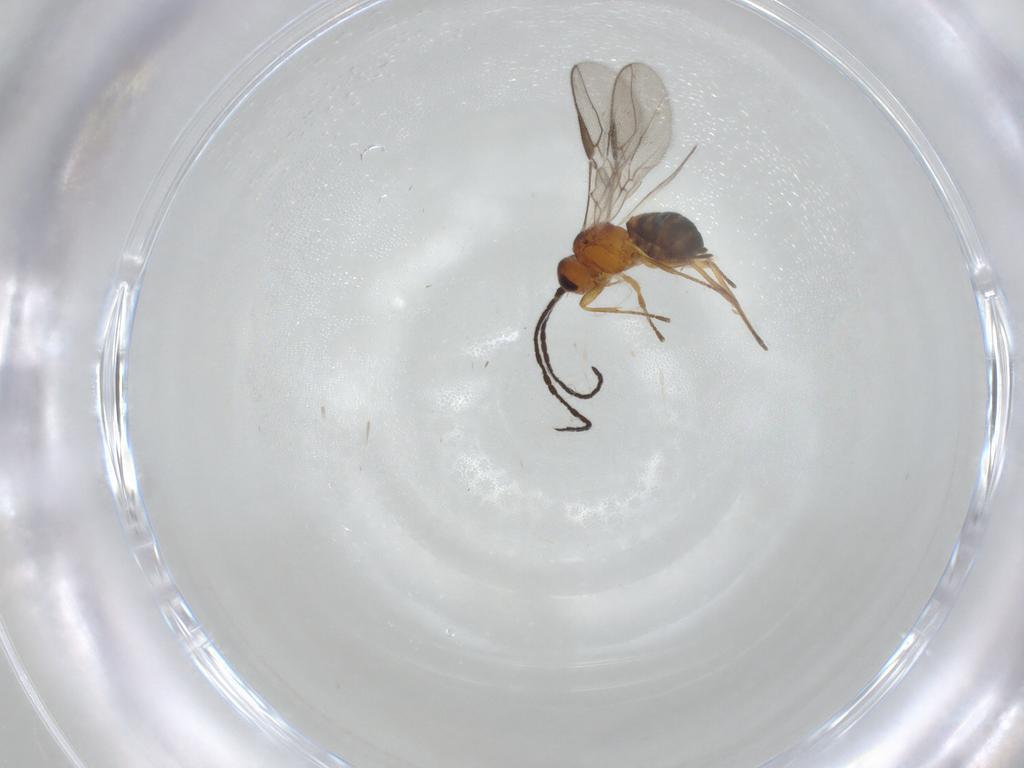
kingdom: Animalia
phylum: Arthropoda
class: Insecta
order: Hymenoptera
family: Braconidae
